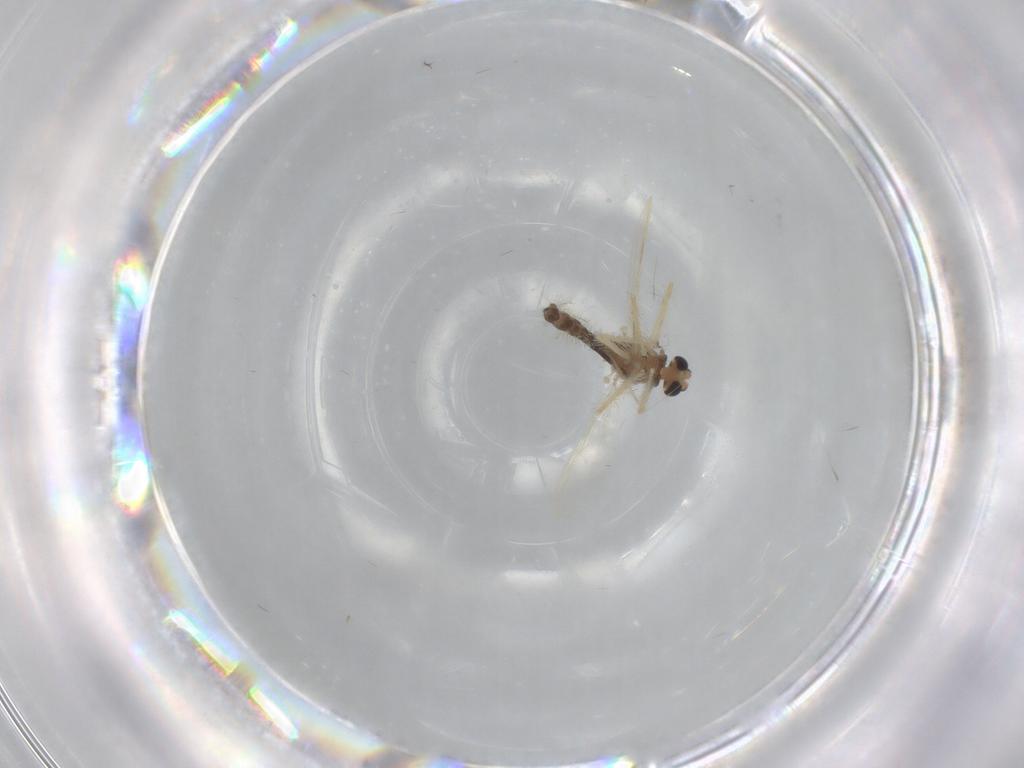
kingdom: Animalia
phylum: Arthropoda
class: Insecta
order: Diptera
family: Chironomidae
